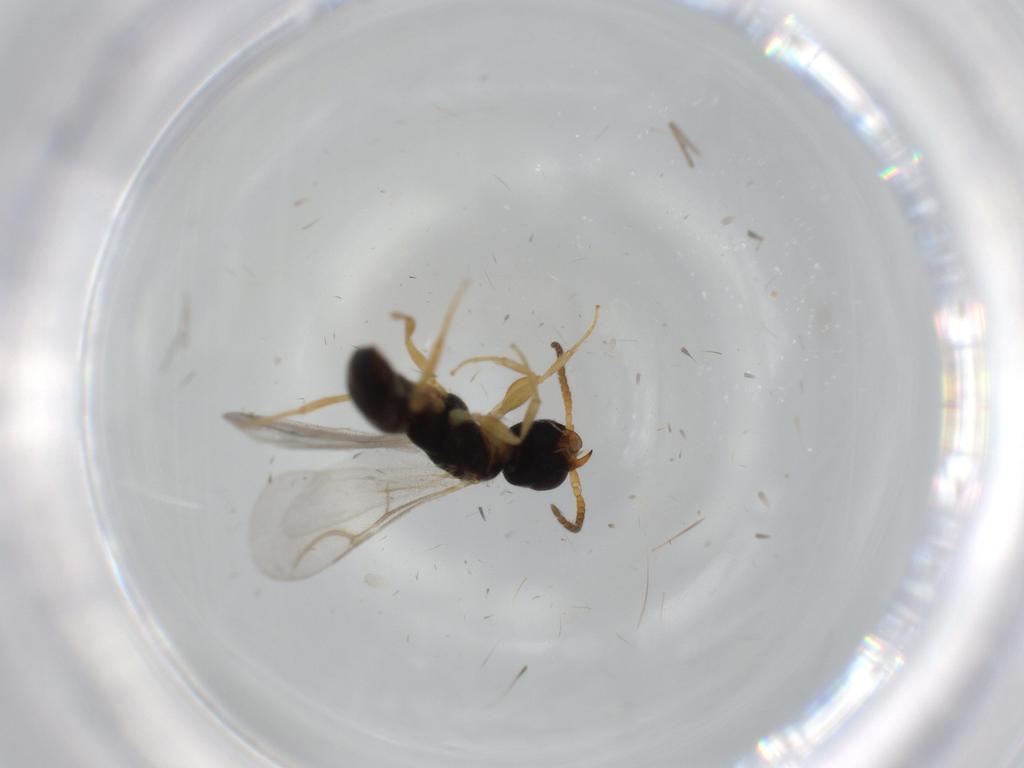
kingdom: Animalia
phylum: Arthropoda
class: Insecta
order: Hymenoptera
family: Bethylidae
